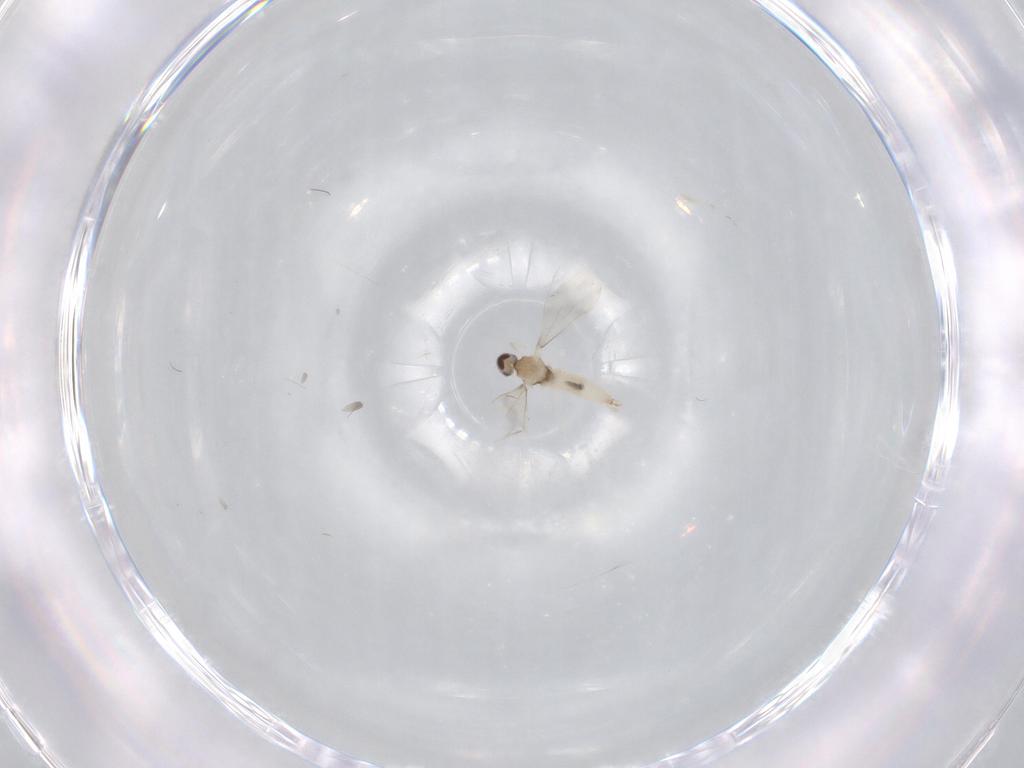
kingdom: Animalia
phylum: Arthropoda
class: Insecta
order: Diptera
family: Cecidomyiidae
